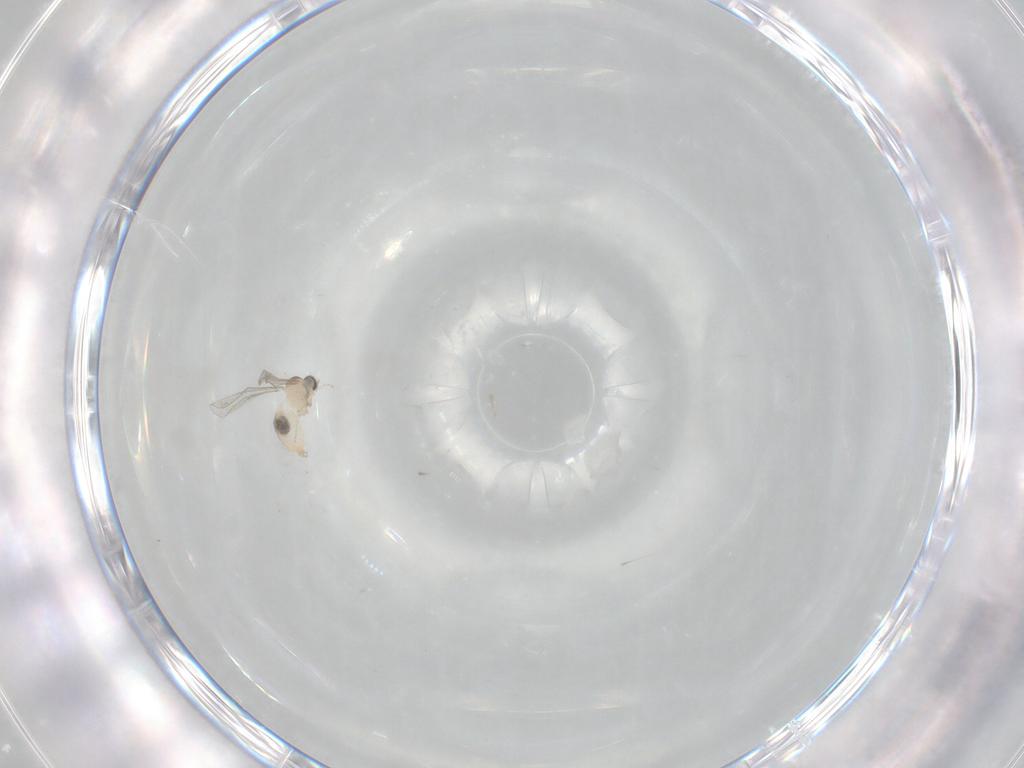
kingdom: Animalia
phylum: Arthropoda
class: Insecta
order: Diptera
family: Cecidomyiidae
